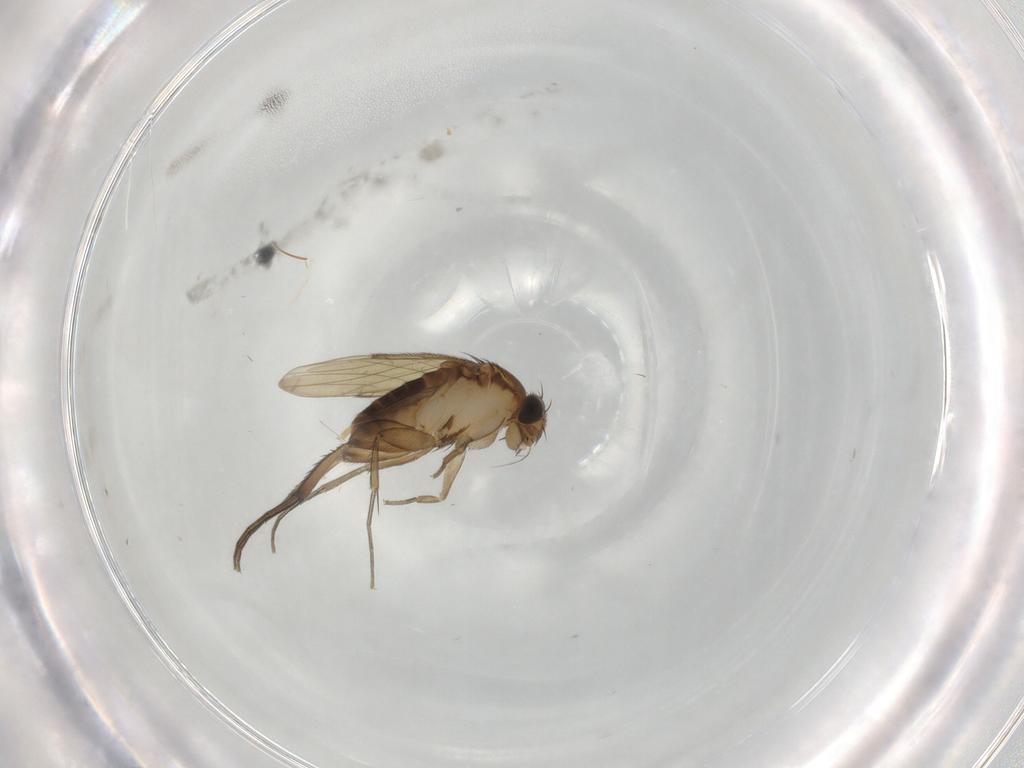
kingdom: Animalia
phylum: Arthropoda
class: Insecta
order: Diptera
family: Phoridae
